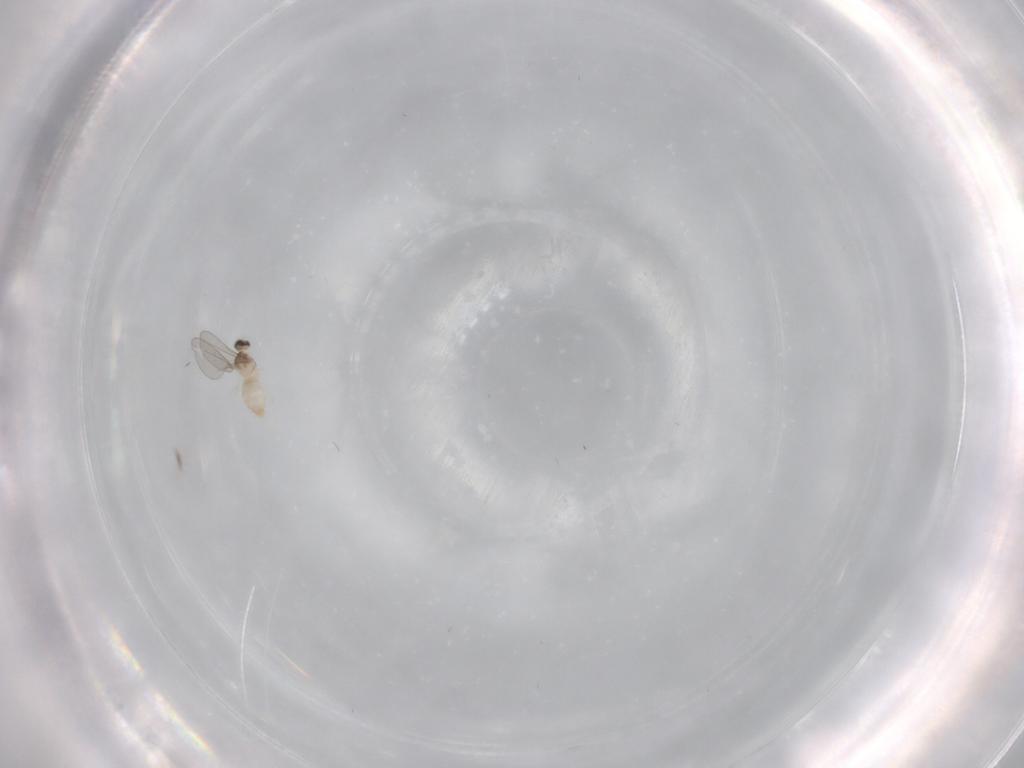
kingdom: Animalia
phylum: Arthropoda
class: Insecta
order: Diptera
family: Cecidomyiidae
